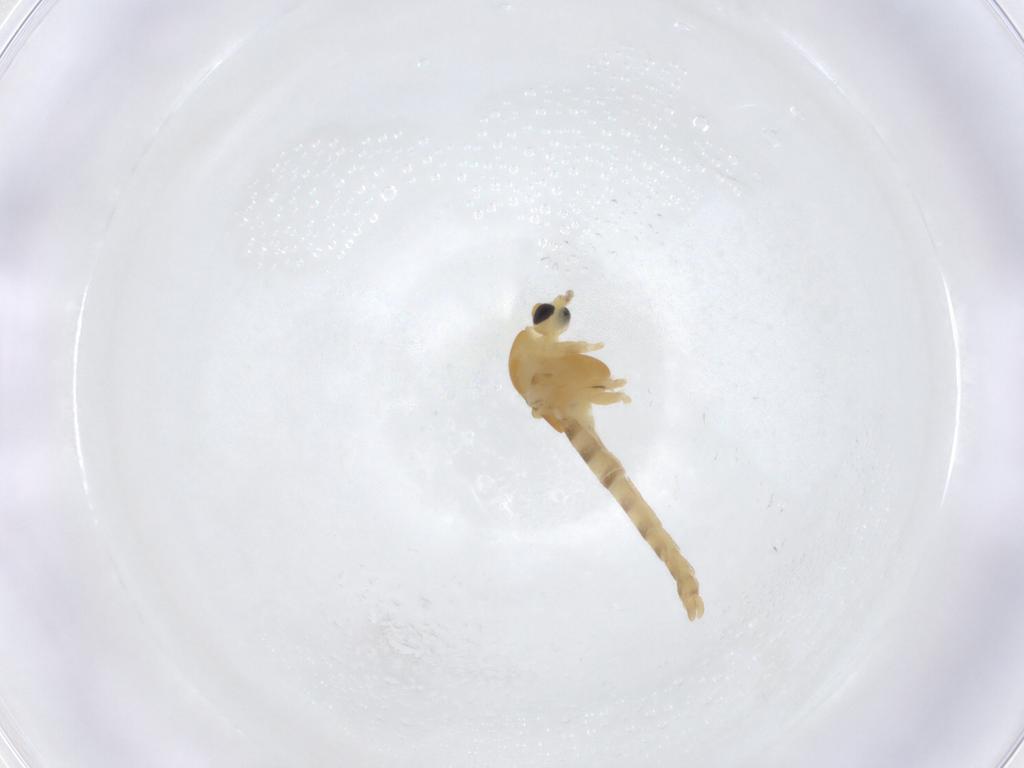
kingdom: Animalia
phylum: Arthropoda
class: Insecta
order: Diptera
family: Chironomidae
